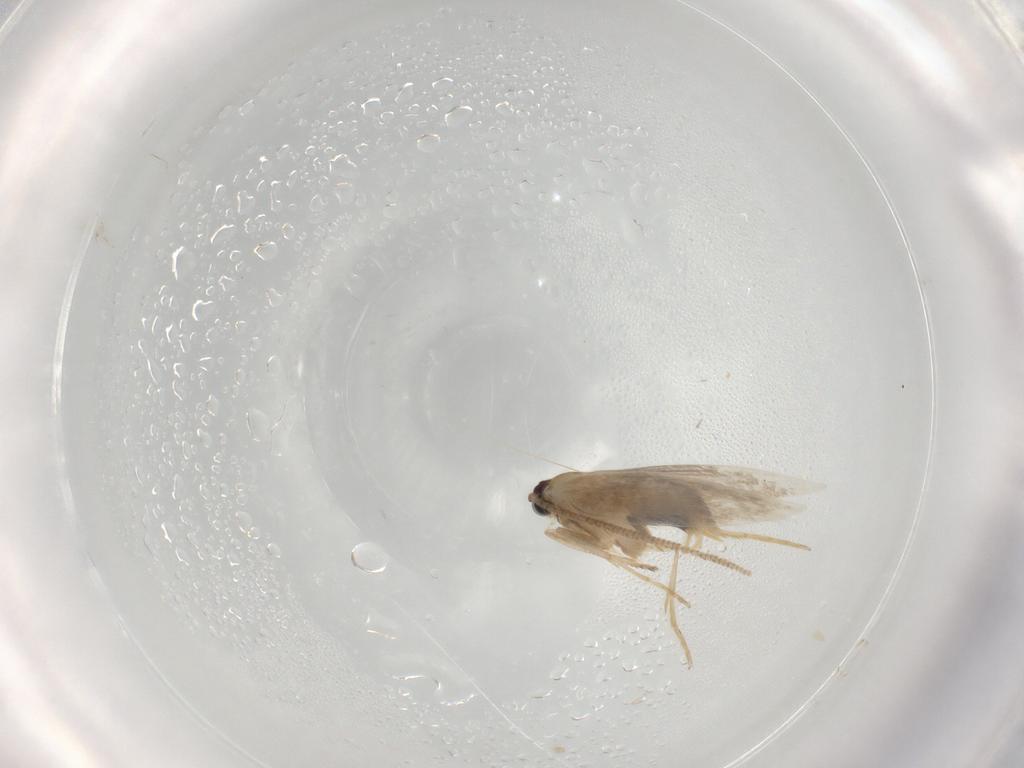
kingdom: Animalia
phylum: Arthropoda
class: Insecta
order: Lepidoptera
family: Tineidae
